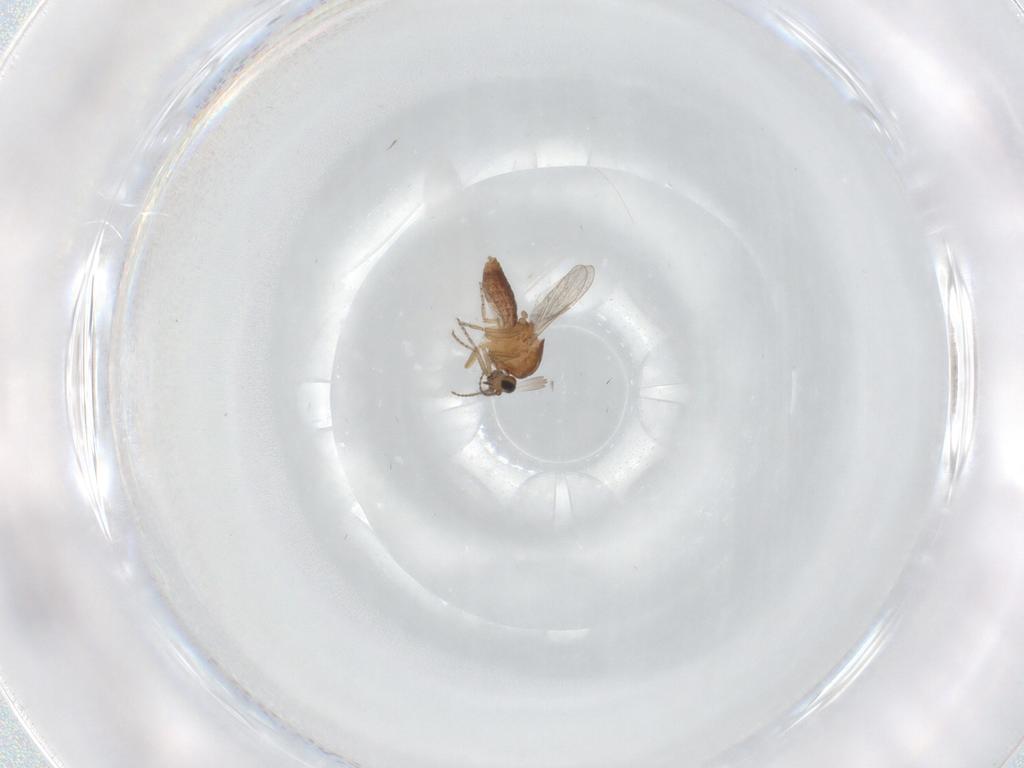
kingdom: Animalia
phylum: Arthropoda
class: Insecta
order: Diptera
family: Ceratopogonidae
